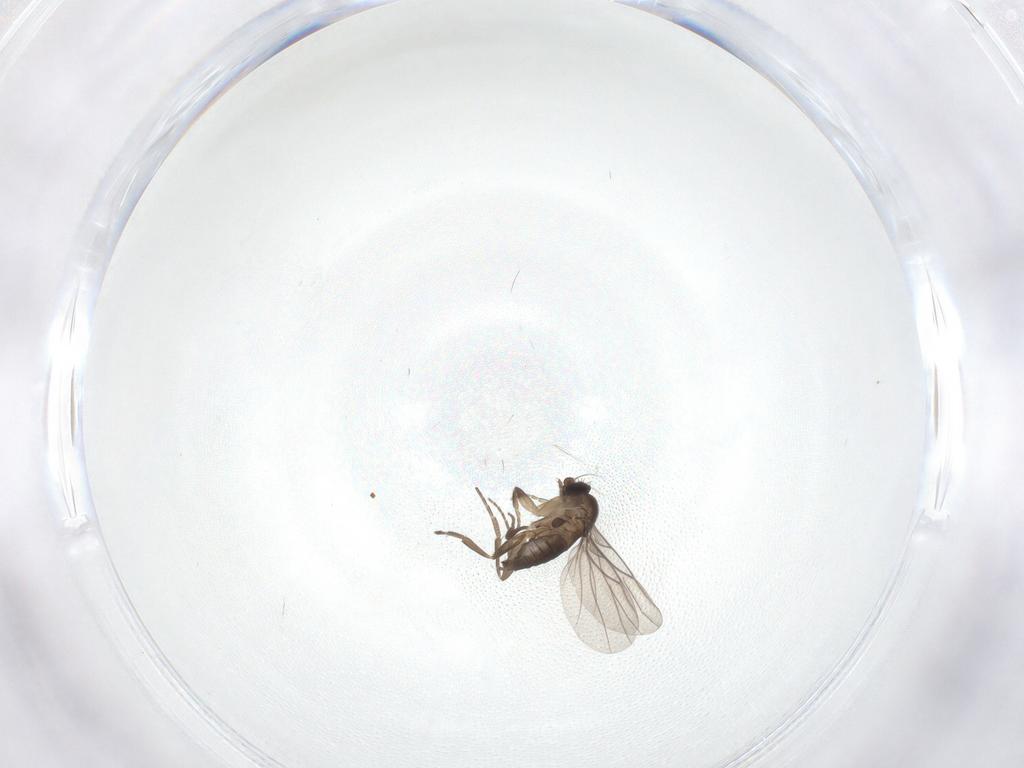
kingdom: Animalia
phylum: Arthropoda
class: Insecta
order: Diptera
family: Phoridae
